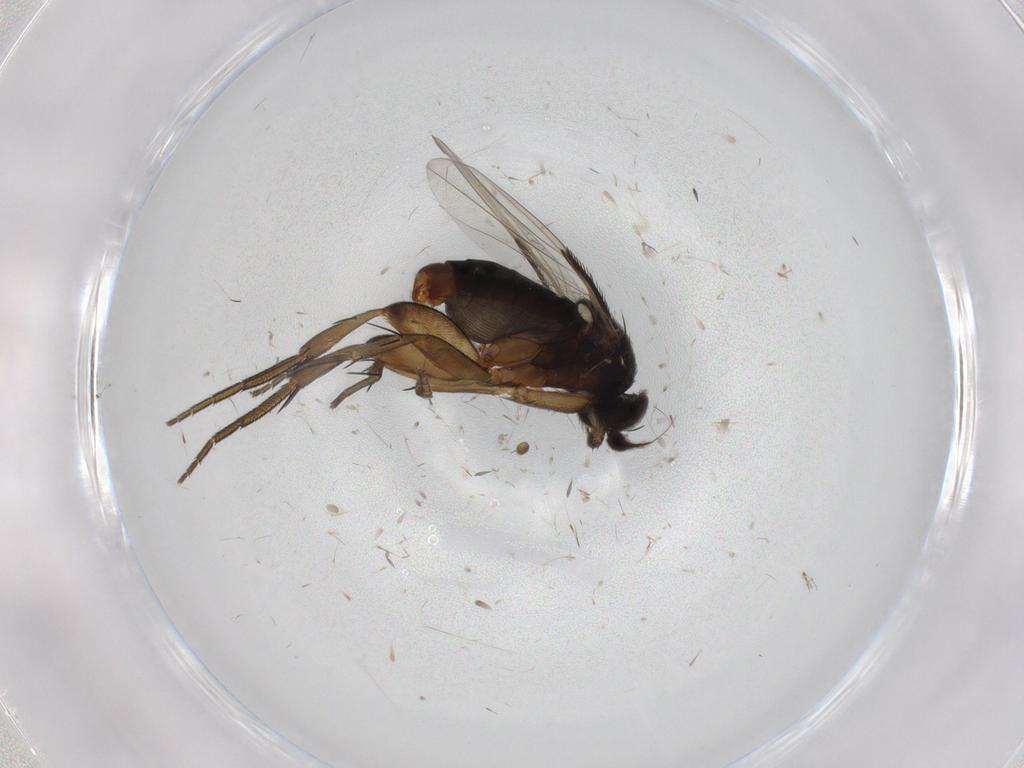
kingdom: Animalia
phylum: Arthropoda
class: Insecta
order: Diptera
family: Phoridae
